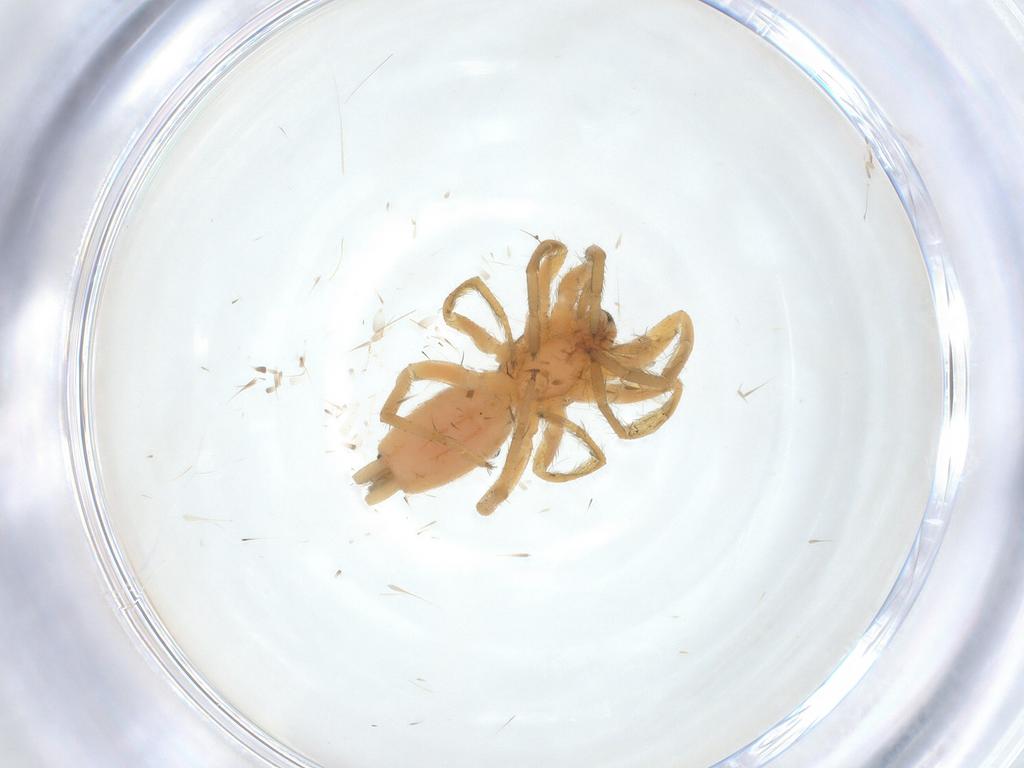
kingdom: Animalia
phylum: Arthropoda
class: Arachnida
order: Araneae
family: Gnaphosidae
